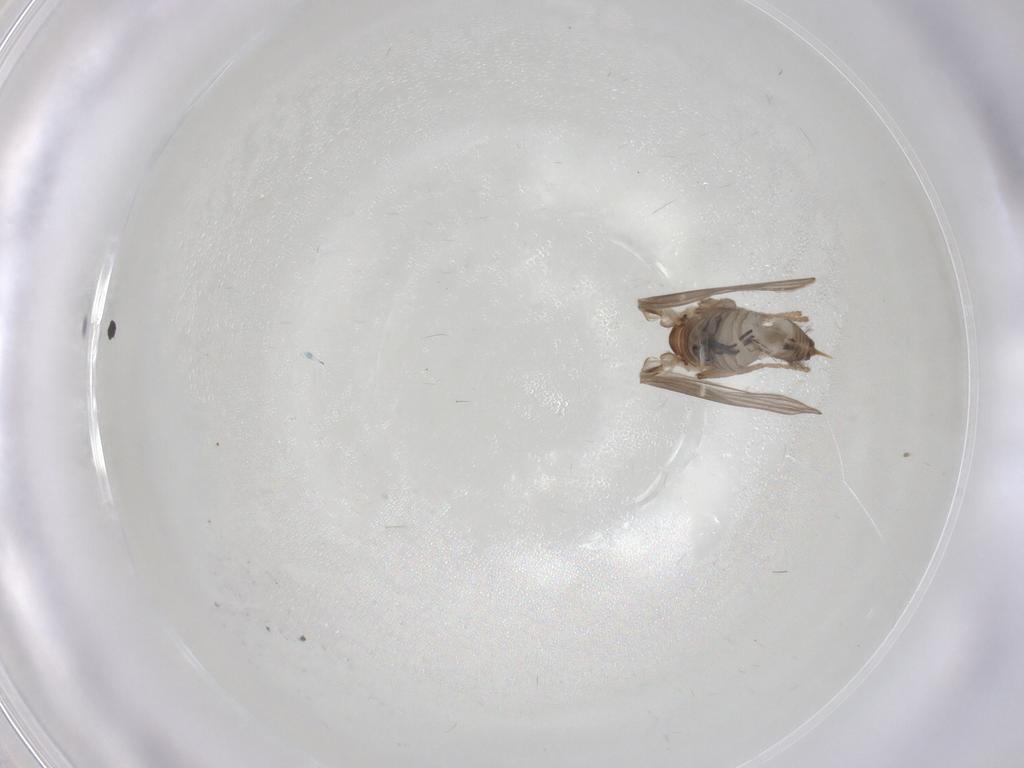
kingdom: Animalia
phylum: Arthropoda
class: Insecta
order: Diptera
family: Psychodidae
